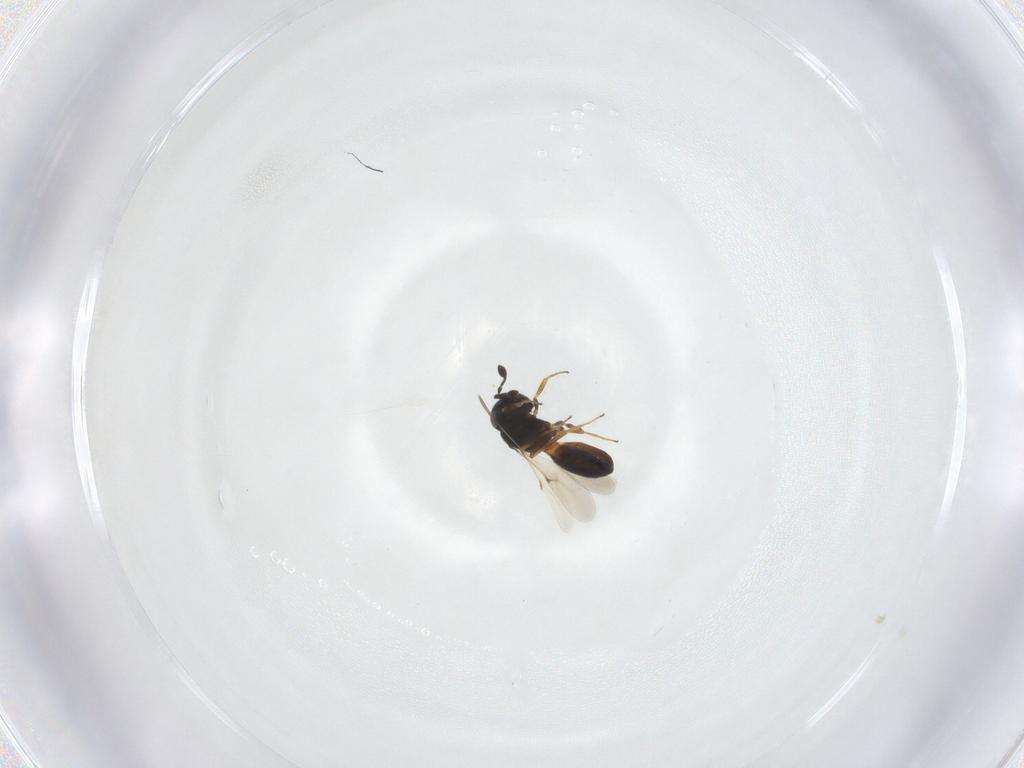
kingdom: Animalia
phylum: Arthropoda
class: Insecta
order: Hymenoptera
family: Scelionidae
